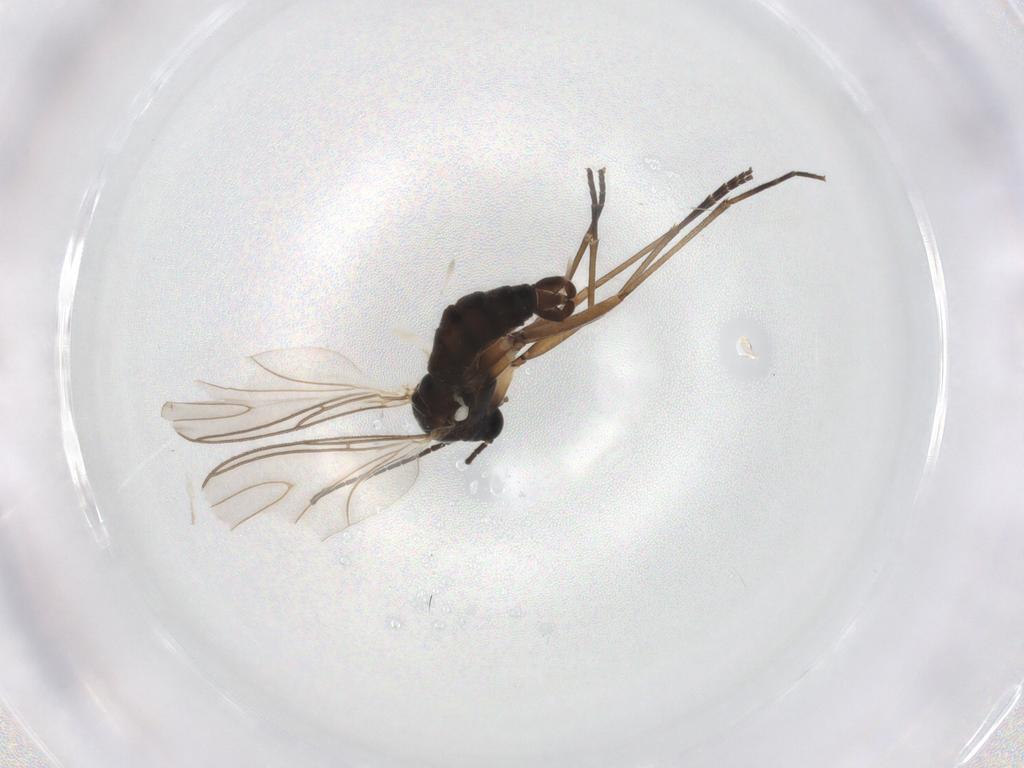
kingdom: Animalia
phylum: Arthropoda
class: Insecta
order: Diptera
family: Sciaridae
